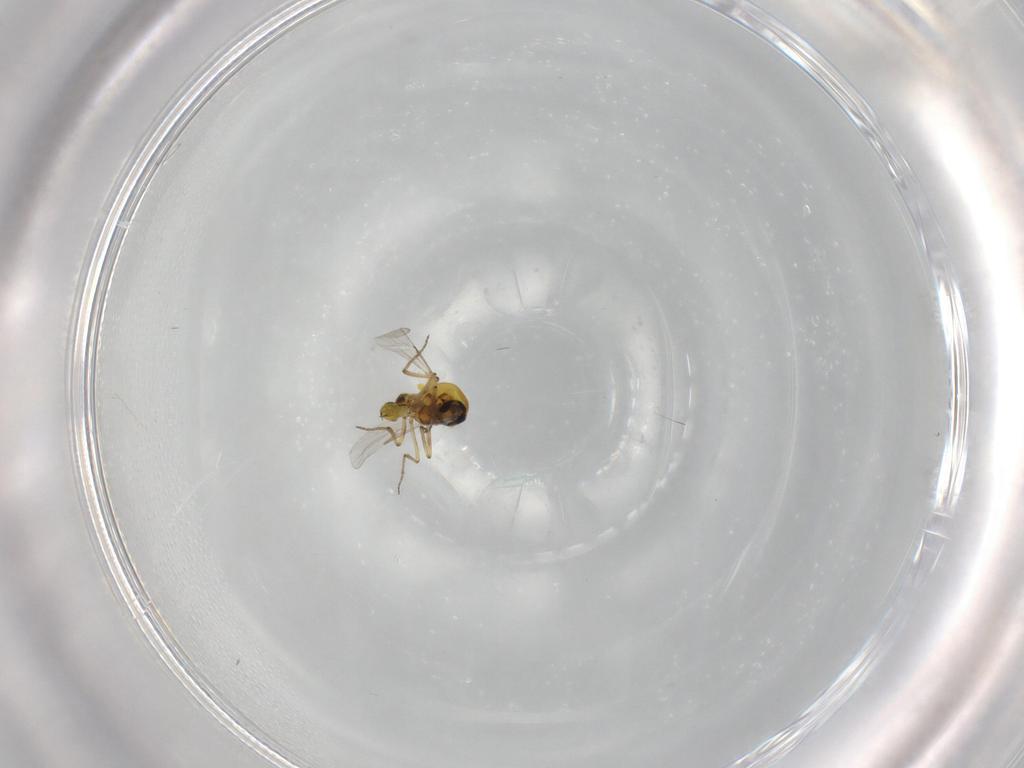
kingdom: Animalia
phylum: Arthropoda
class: Insecta
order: Diptera
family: Ceratopogonidae
